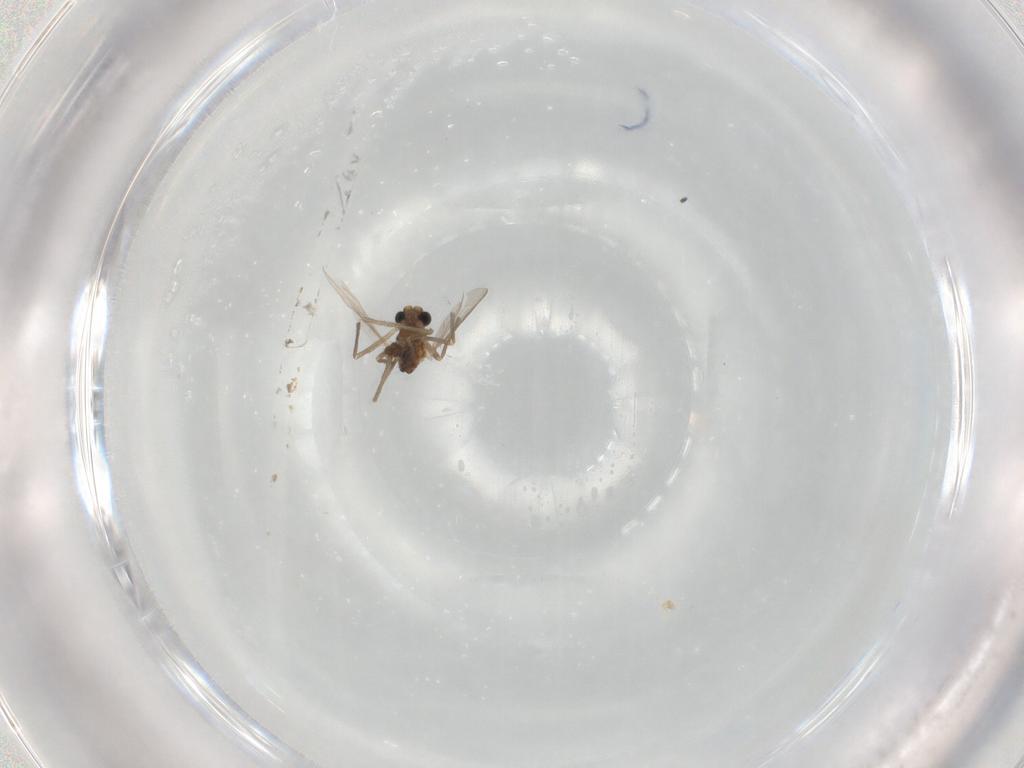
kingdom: Animalia
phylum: Arthropoda
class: Insecta
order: Diptera
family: Chironomidae
